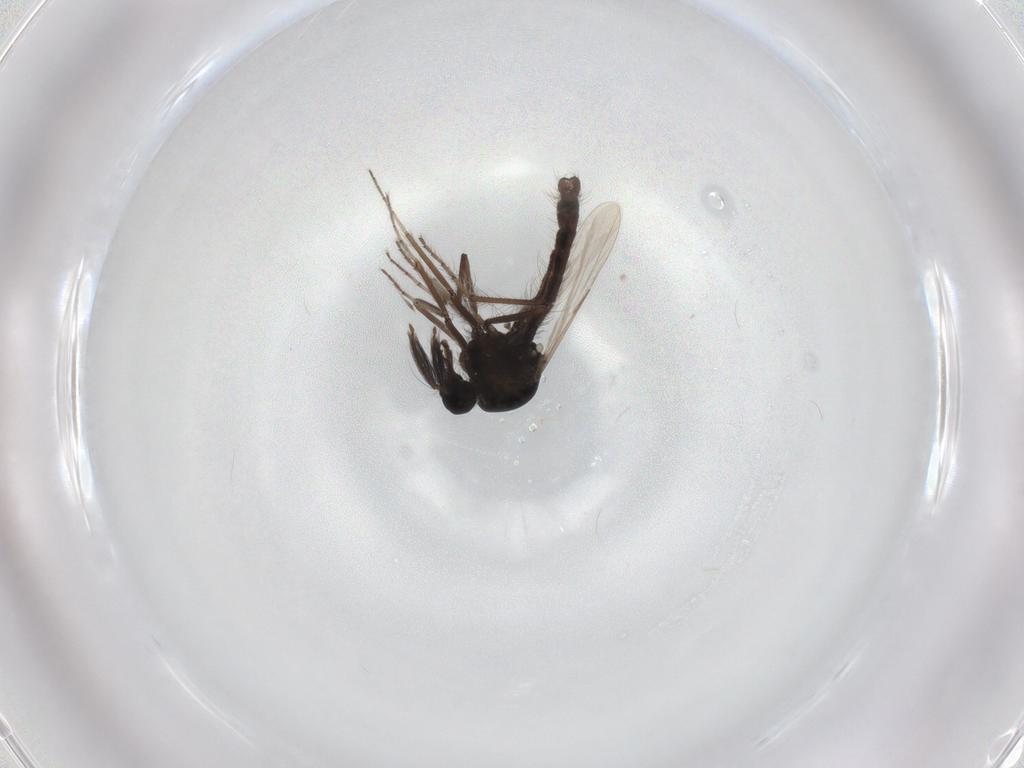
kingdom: Animalia
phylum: Arthropoda
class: Insecta
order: Diptera
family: Ceratopogonidae
